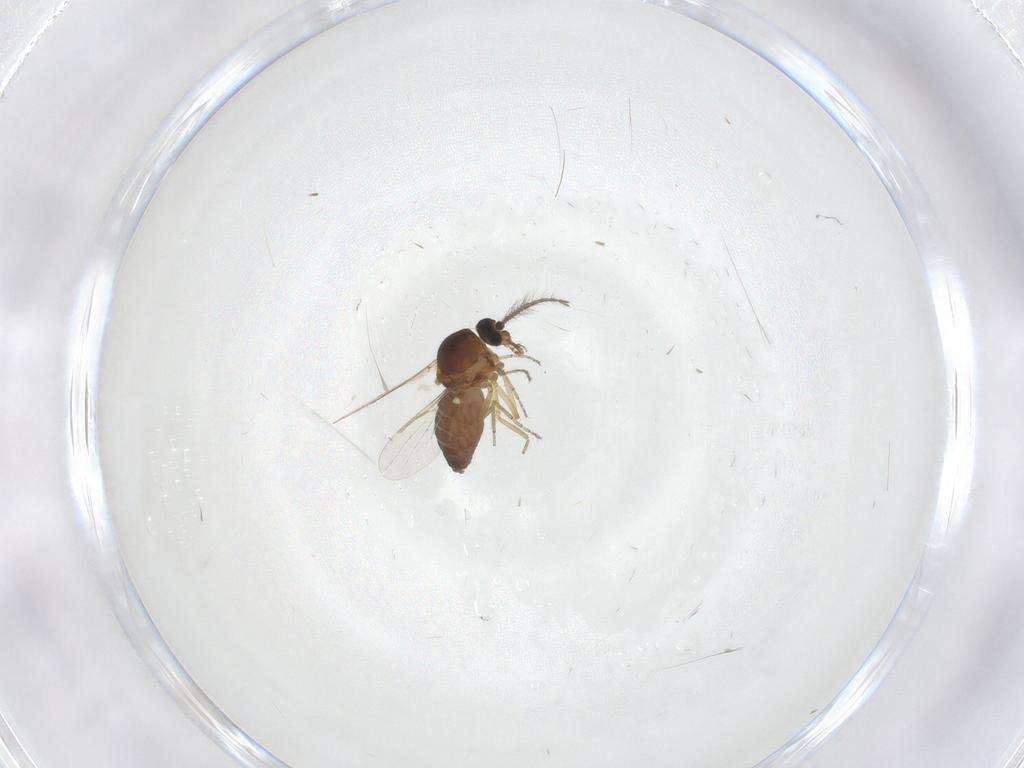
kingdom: Animalia
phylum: Arthropoda
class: Insecta
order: Diptera
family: Ceratopogonidae
